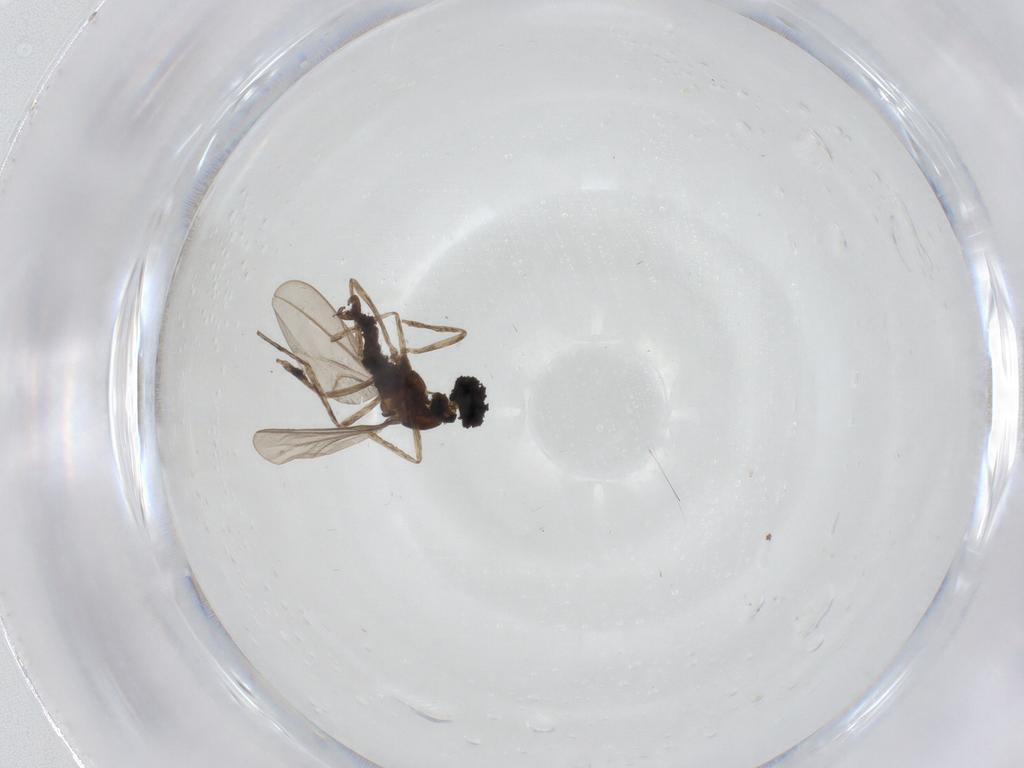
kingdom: Animalia
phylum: Arthropoda
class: Insecta
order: Diptera
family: Cecidomyiidae
